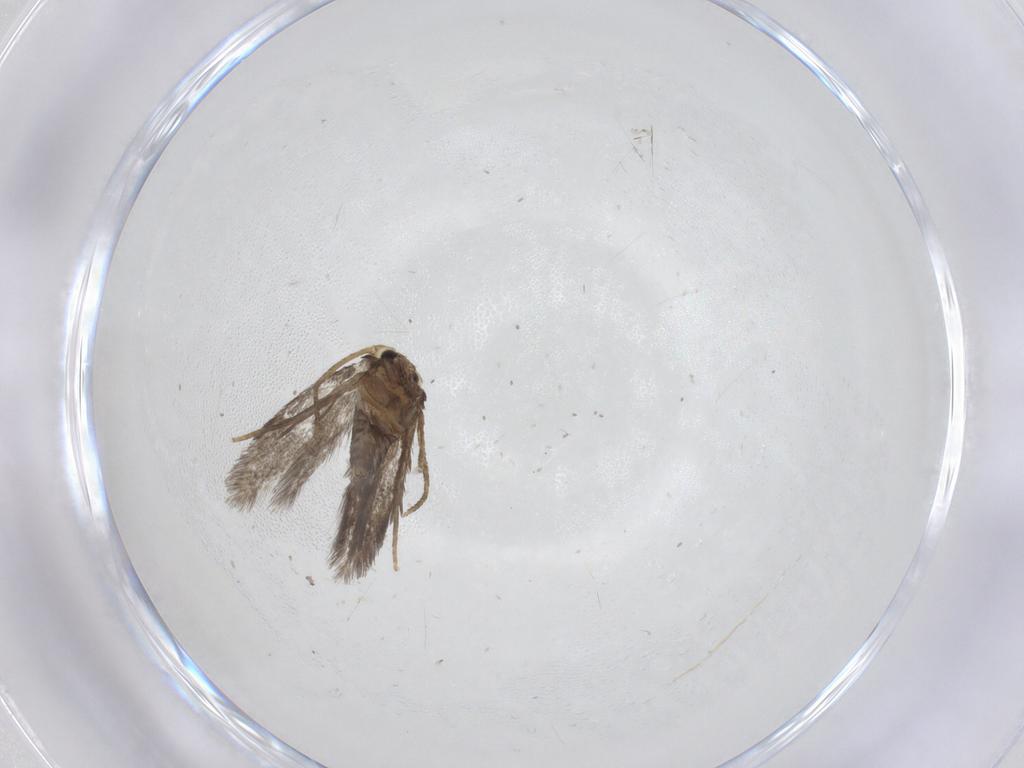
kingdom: Animalia
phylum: Arthropoda
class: Insecta
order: Lepidoptera
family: Nepticulidae
